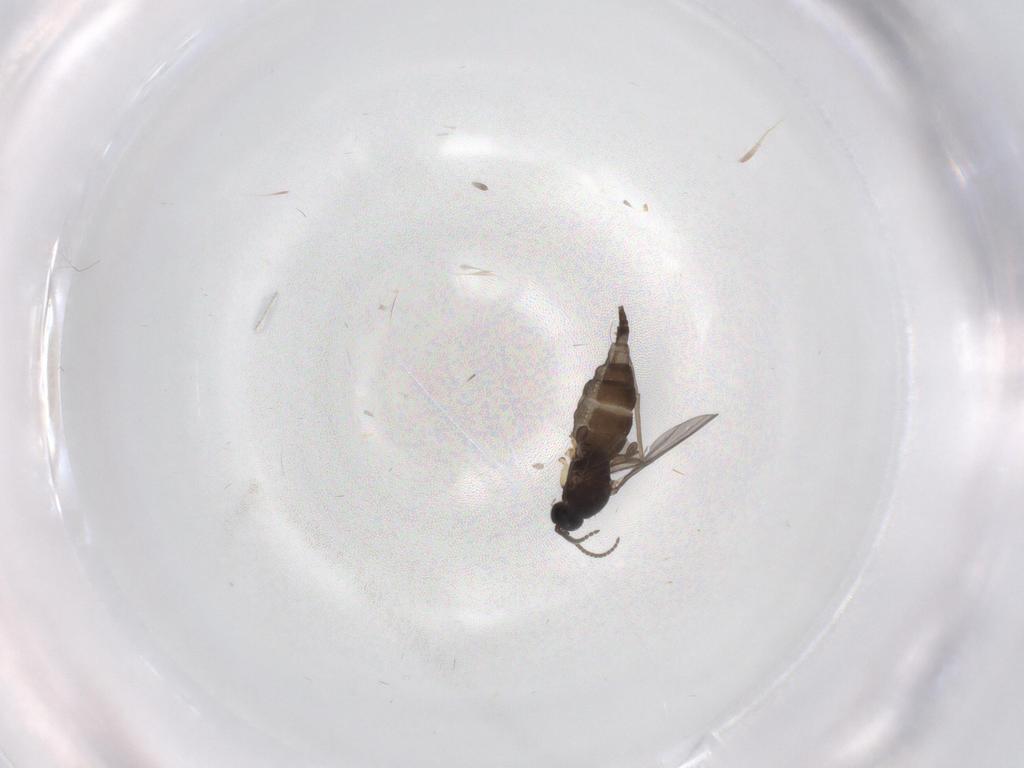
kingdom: Animalia
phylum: Arthropoda
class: Insecta
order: Diptera
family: Sciaridae
